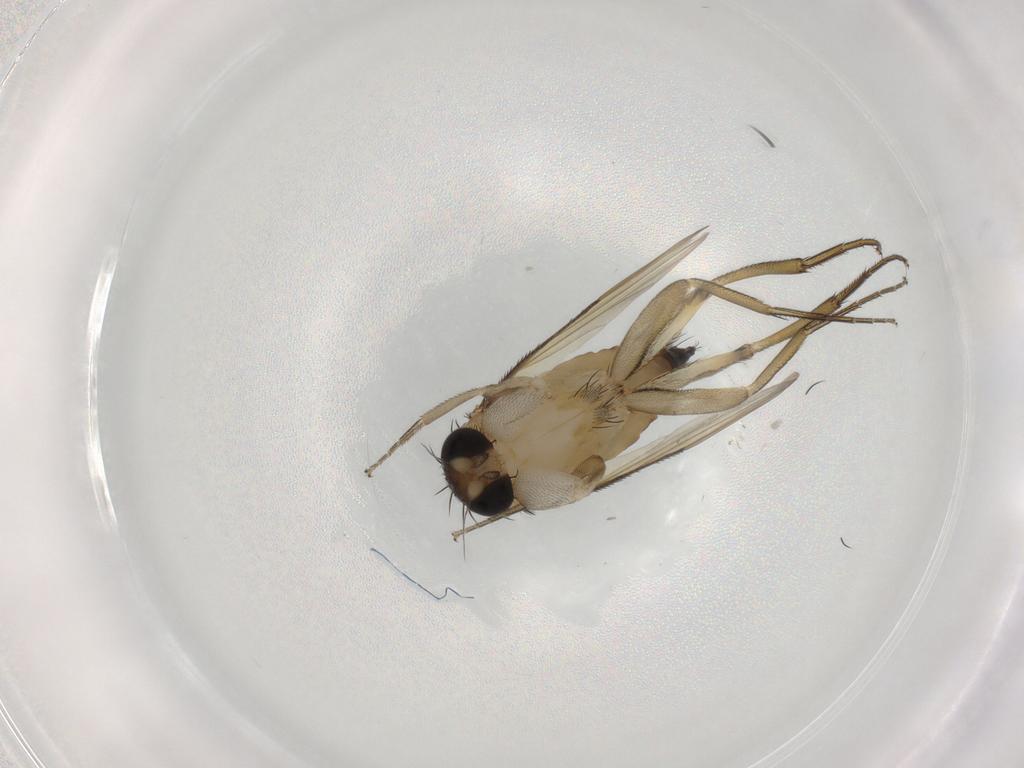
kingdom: Animalia
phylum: Arthropoda
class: Insecta
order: Diptera
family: Phoridae
